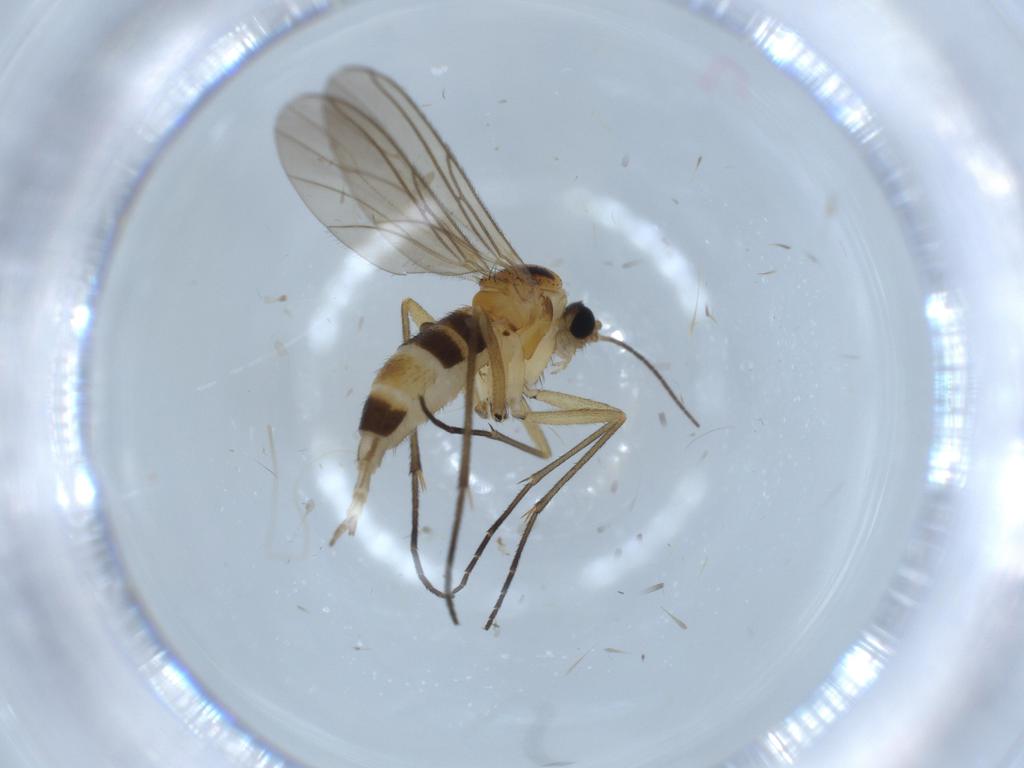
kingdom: Animalia
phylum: Arthropoda
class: Insecta
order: Diptera
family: Sciaridae
